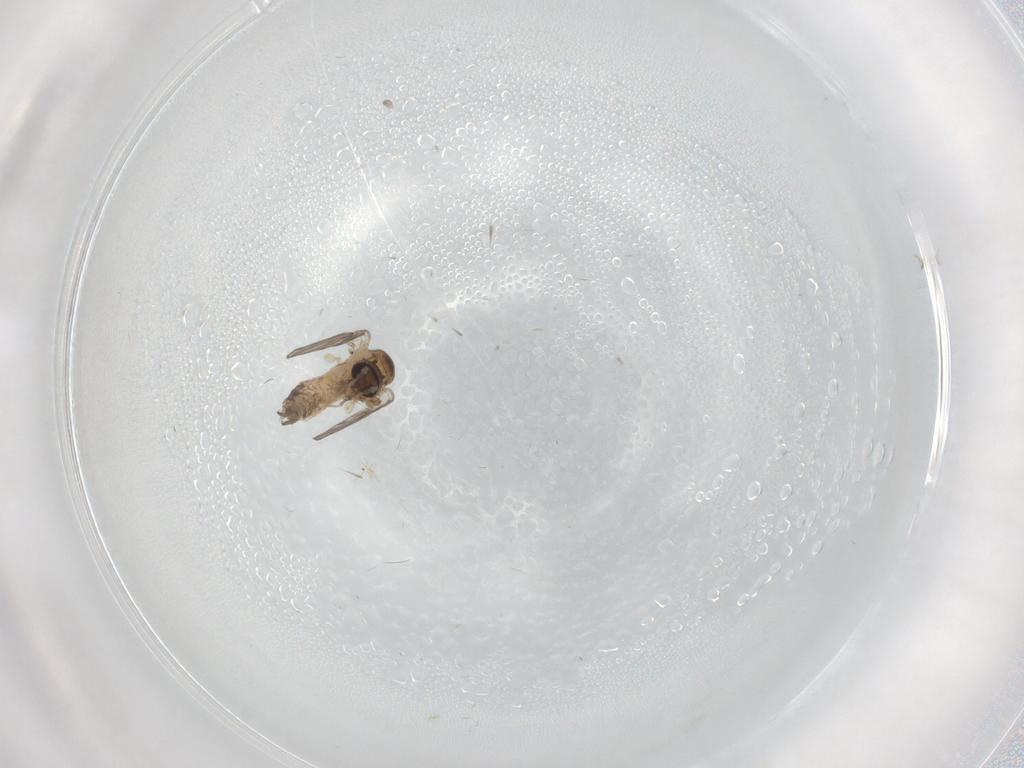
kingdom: Animalia
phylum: Arthropoda
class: Insecta
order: Diptera
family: Psychodidae
